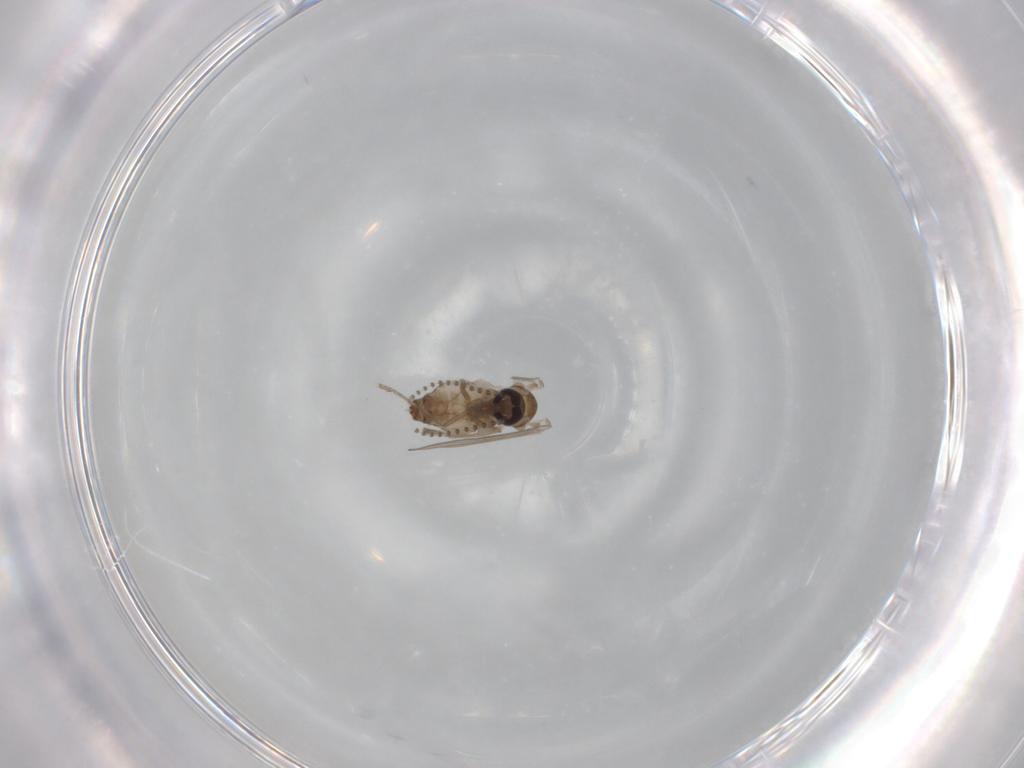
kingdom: Animalia
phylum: Arthropoda
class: Insecta
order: Diptera
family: Psychodidae
